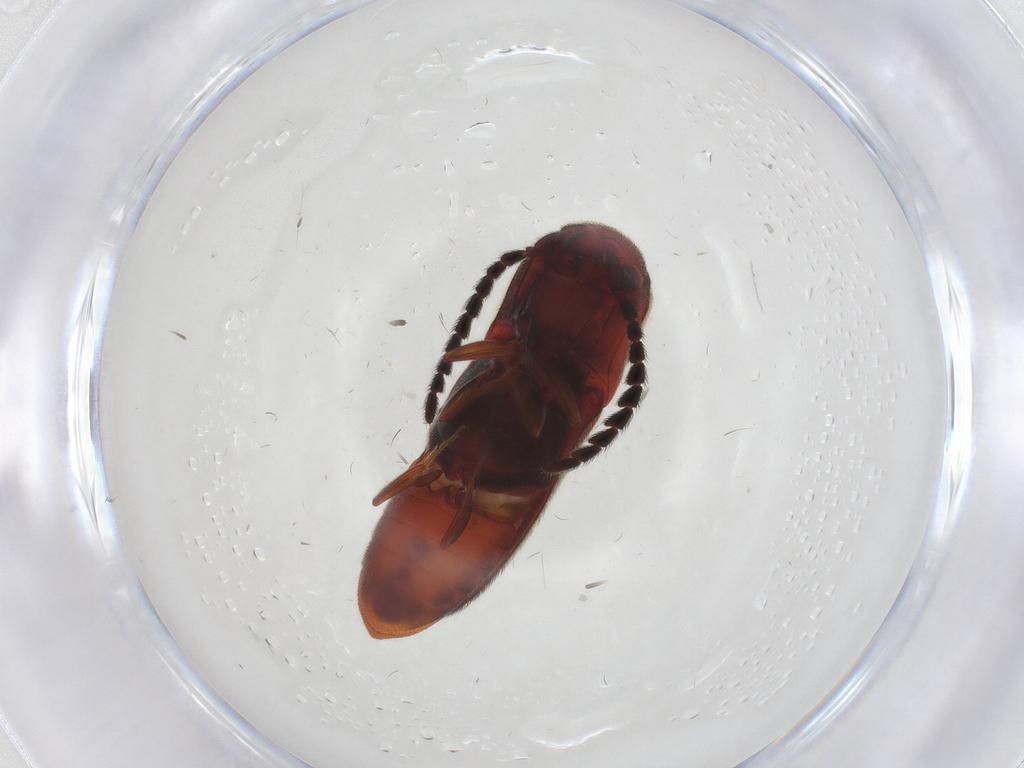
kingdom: Animalia
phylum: Arthropoda
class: Insecta
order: Coleoptera
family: Eucnemidae
